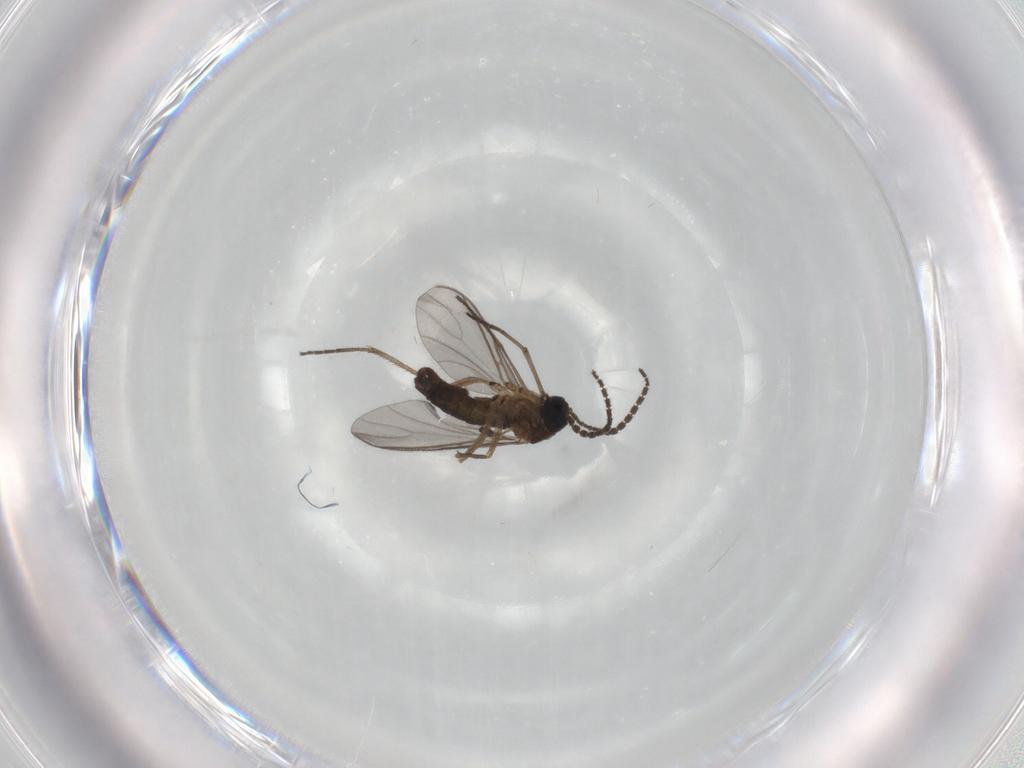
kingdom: Animalia
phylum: Arthropoda
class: Insecta
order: Diptera
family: Sciaridae
